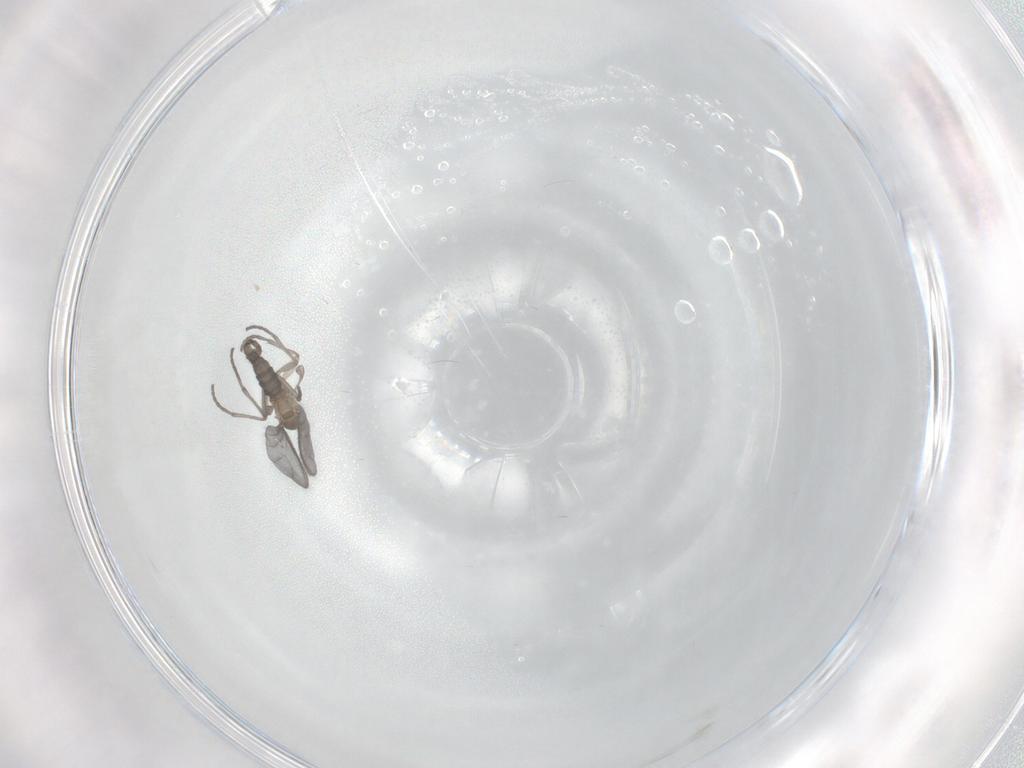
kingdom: Animalia
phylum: Arthropoda
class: Insecta
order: Diptera
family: Sciaridae
